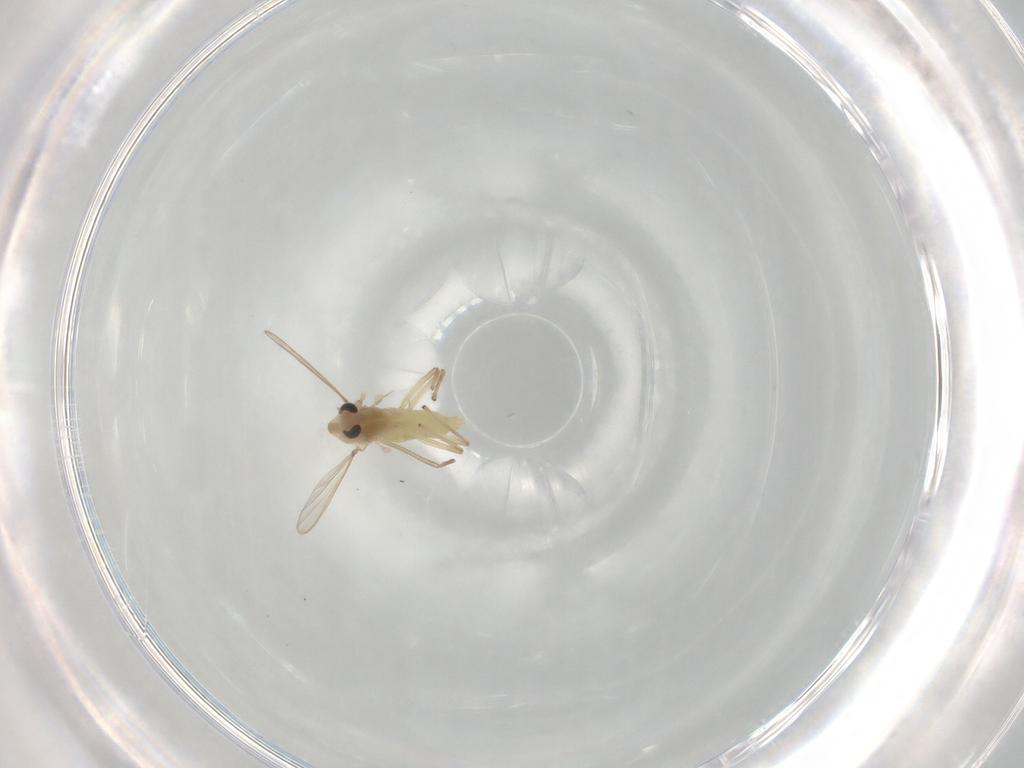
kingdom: Animalia
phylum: Arthropoda
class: Insecta
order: Diptera
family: Chironomidae
